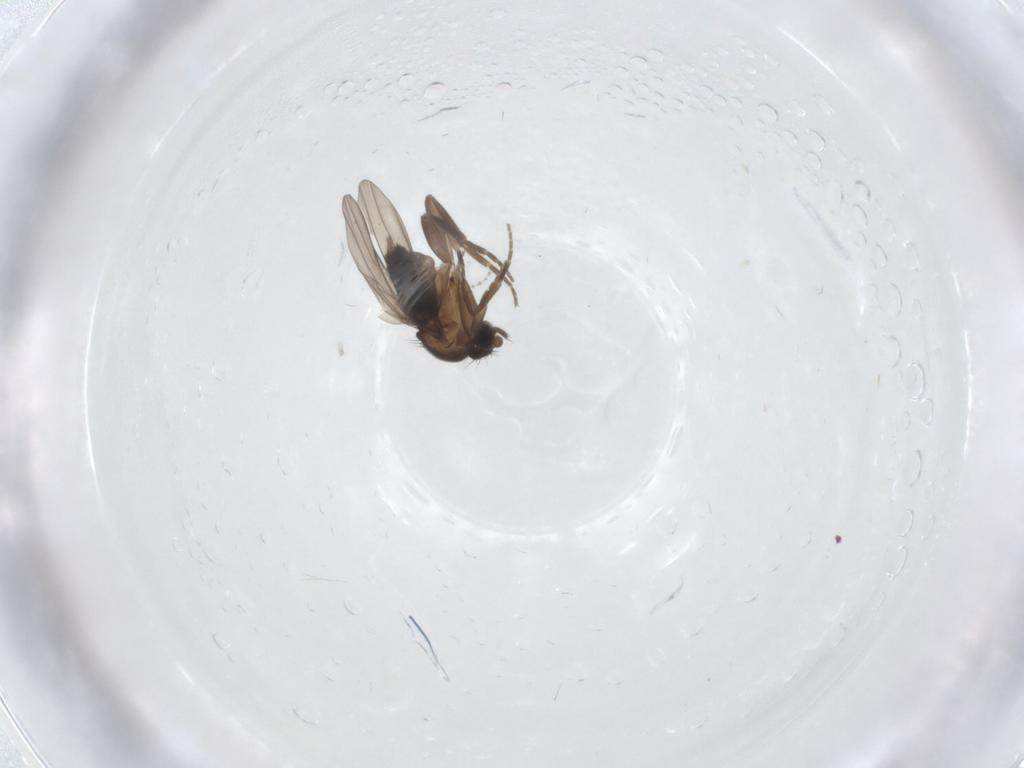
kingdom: Animalia
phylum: Arthropoda
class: Insecta
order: Diptera
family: Cecidomyiidae
